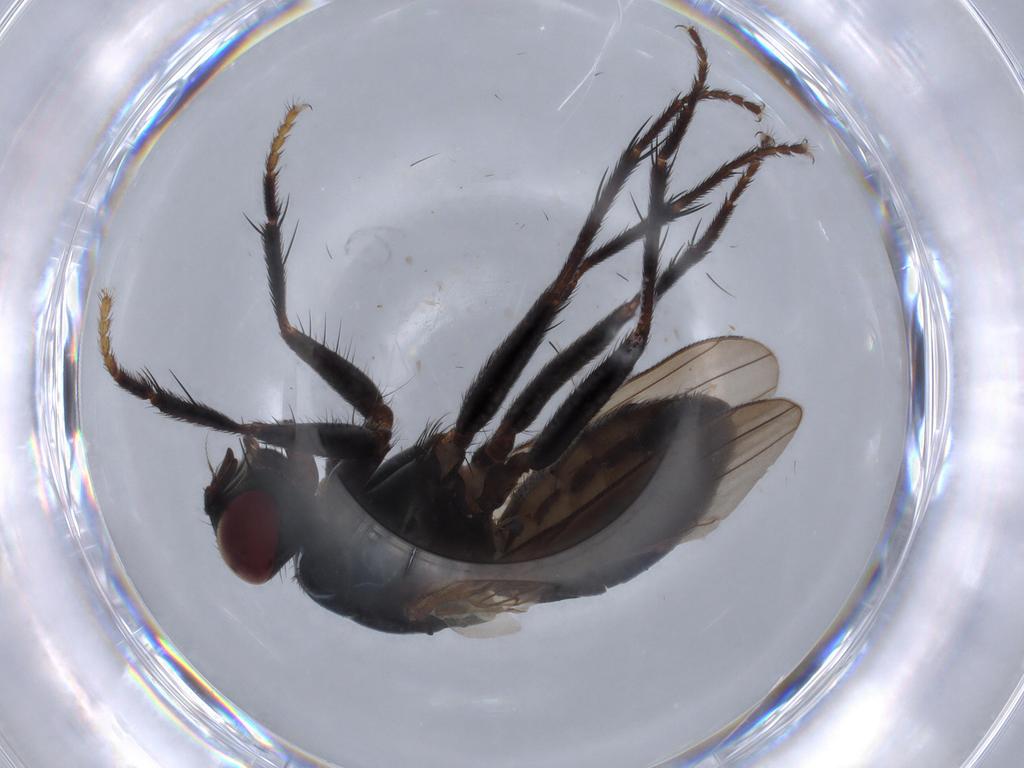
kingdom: Animalia
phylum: Arthropoda
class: Insecta
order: Diptera
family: Muscidae
